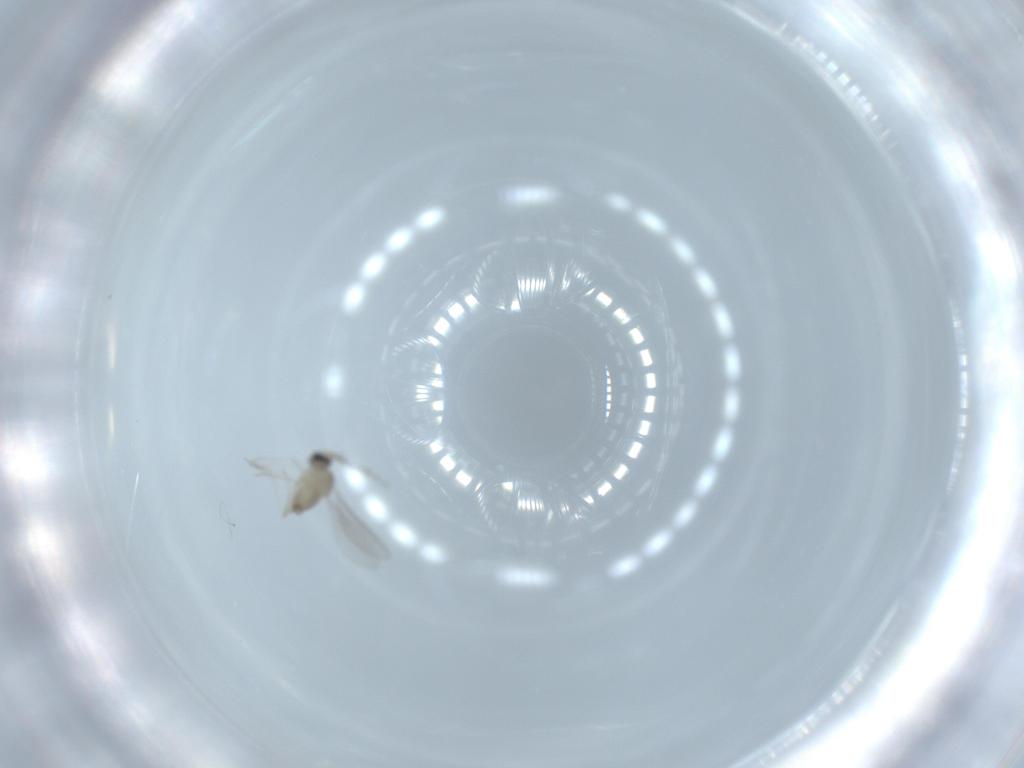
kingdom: Animalia
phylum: Arthropoda
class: Insecta
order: Diptera
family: Cecidomyiidae
